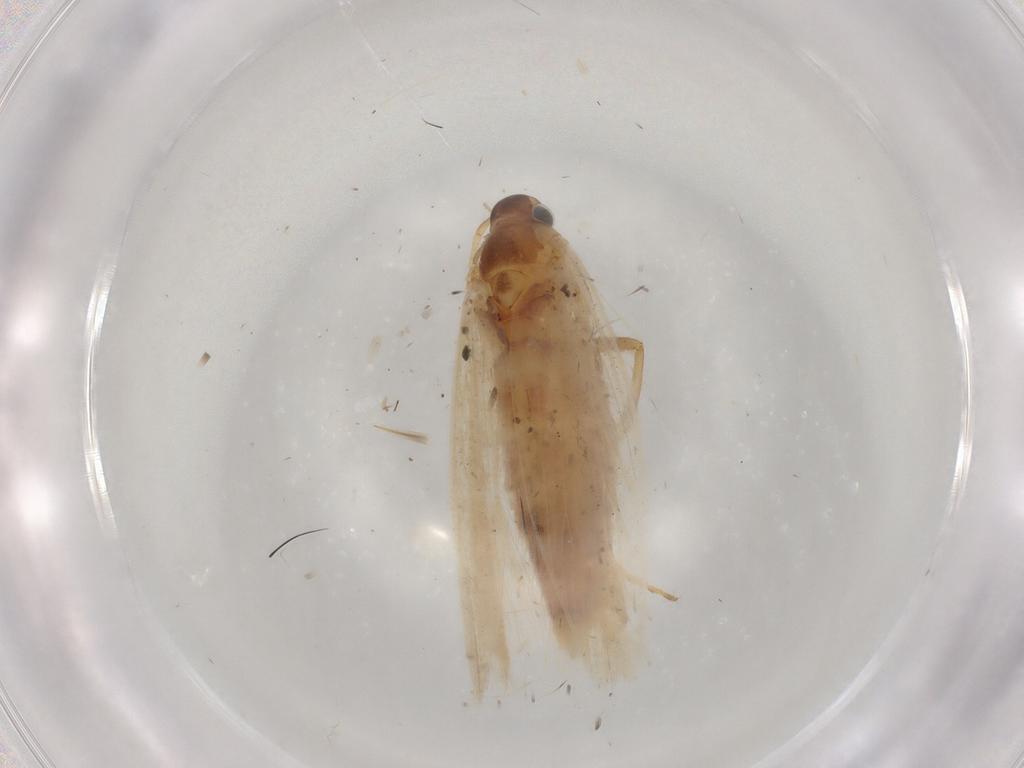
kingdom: Animalia
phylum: Arthropoda
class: Insecta
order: Lepidoptera
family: Gelechiidae
